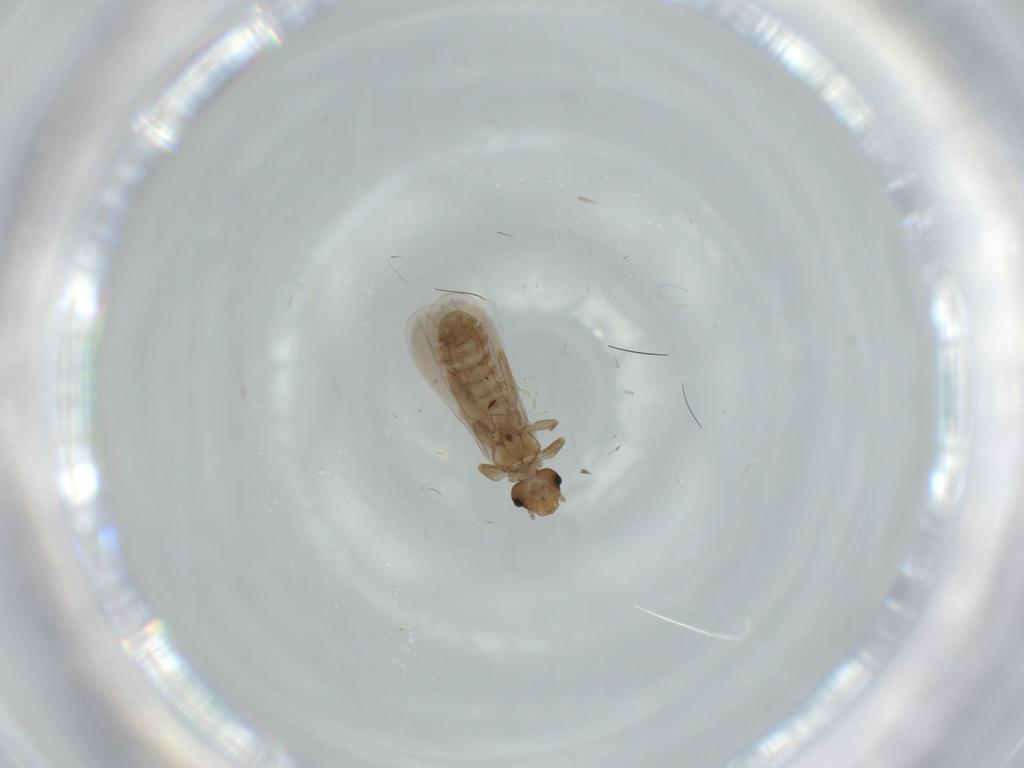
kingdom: Animalia
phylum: Arthropoda
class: Insecta
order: Psocodea
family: Liposcelididae
